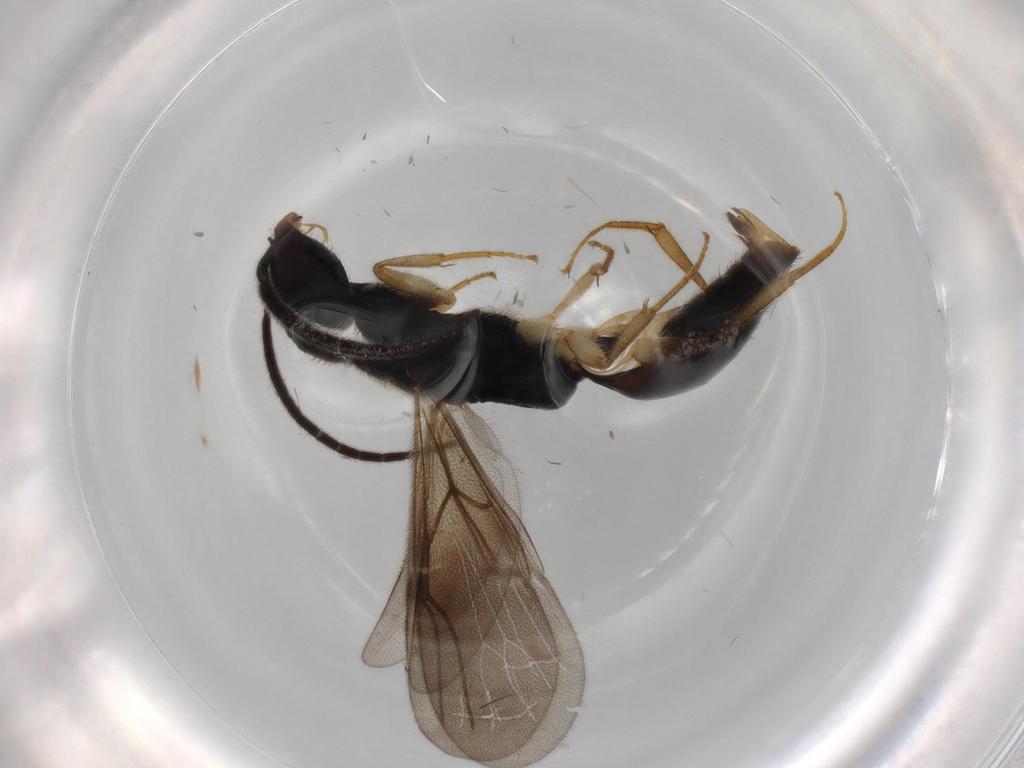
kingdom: Animalia
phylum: Arthropoda
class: Insecta
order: Hymenoptera
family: Bethylidae
